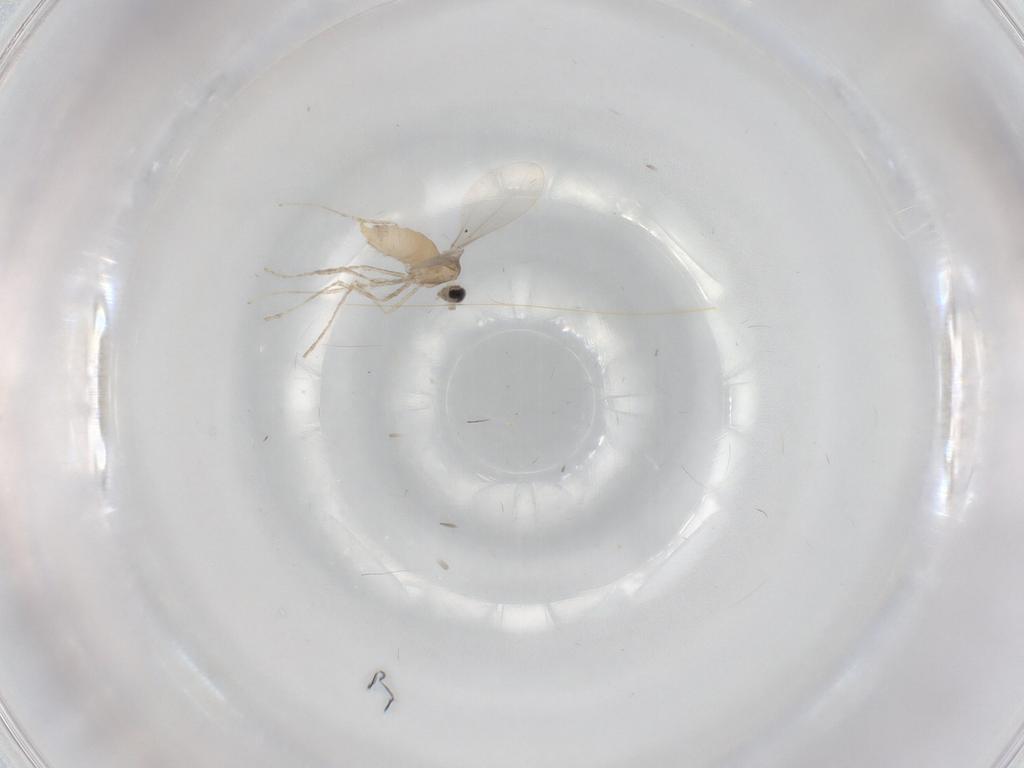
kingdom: Animalia
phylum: Arthropoda
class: Insecta
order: Diptera
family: Cecidomyiidae
